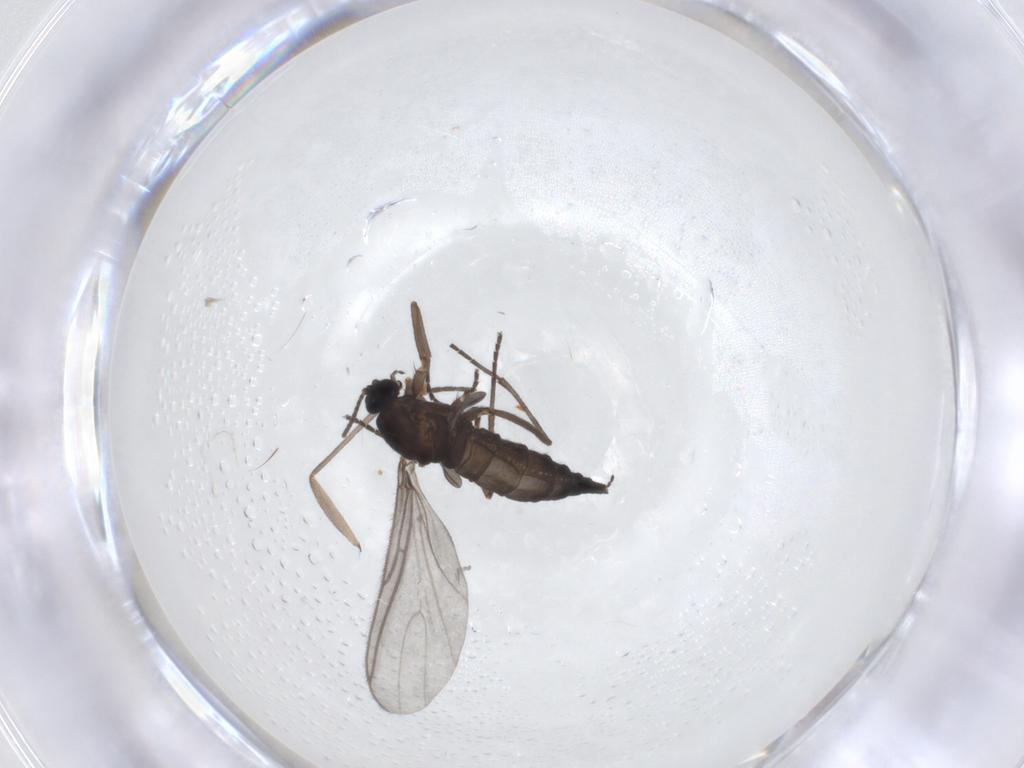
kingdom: Animalia
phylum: Arthropoda
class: Insecta
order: Diptera
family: Sciaridae
